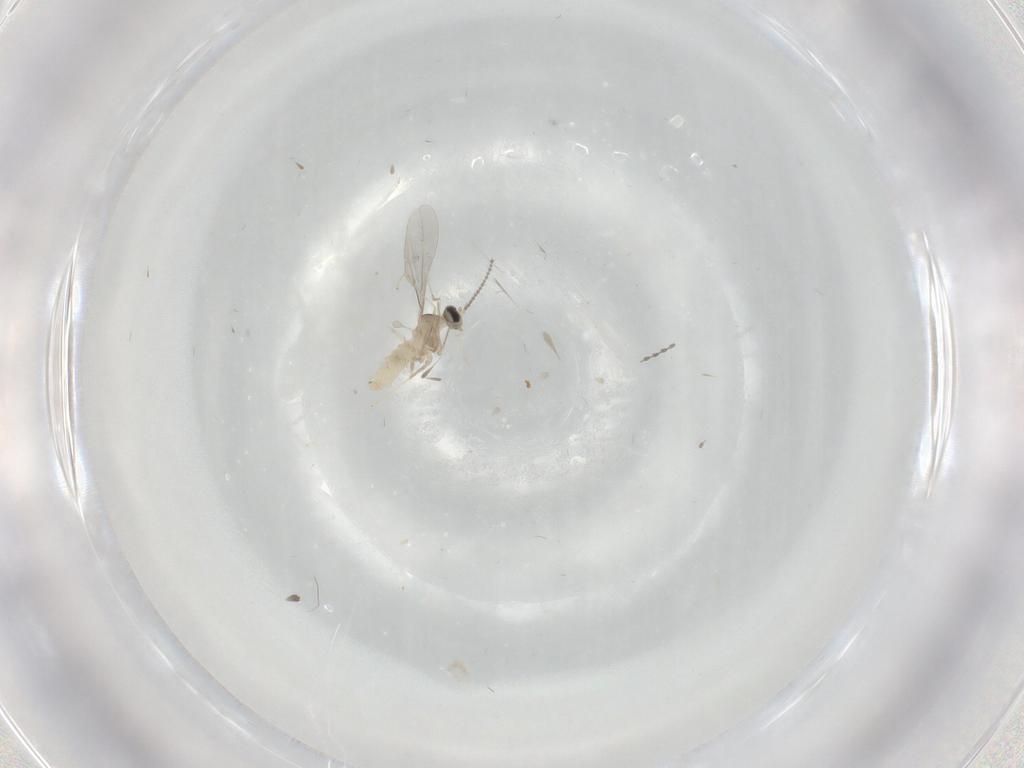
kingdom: Animalia
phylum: Arthropoda
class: Insecta
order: Diptera
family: Cecidomyiidae
